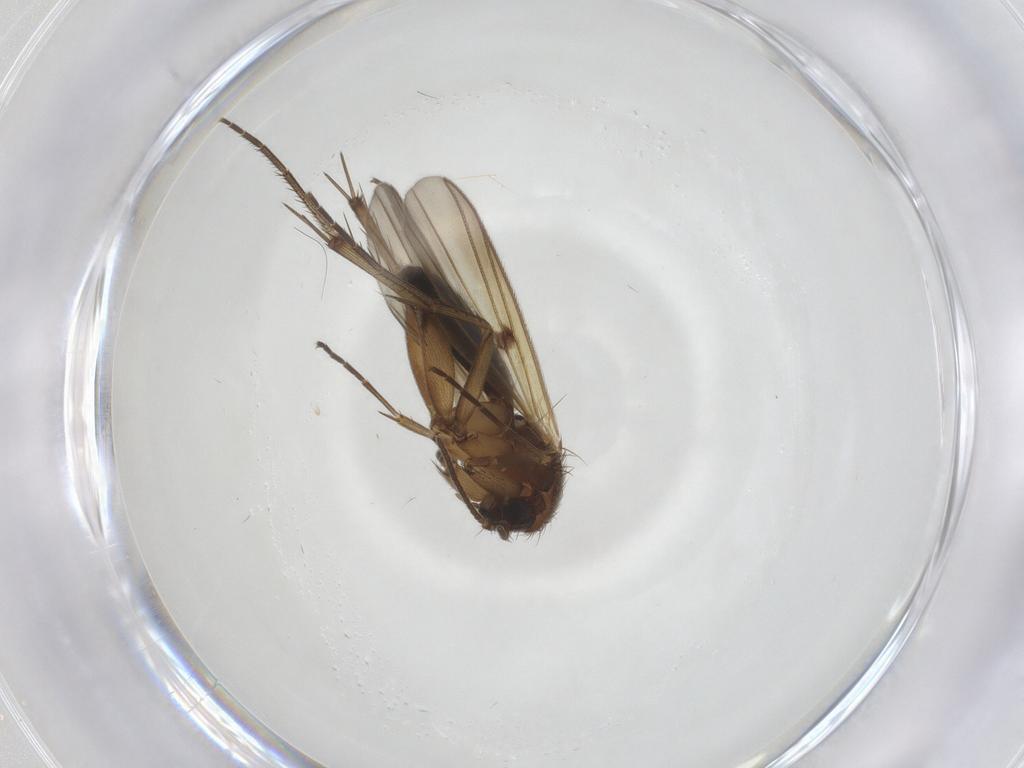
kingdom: Animalia
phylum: Arthropoda
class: Insecta
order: Diptera
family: Mycetophilidae
